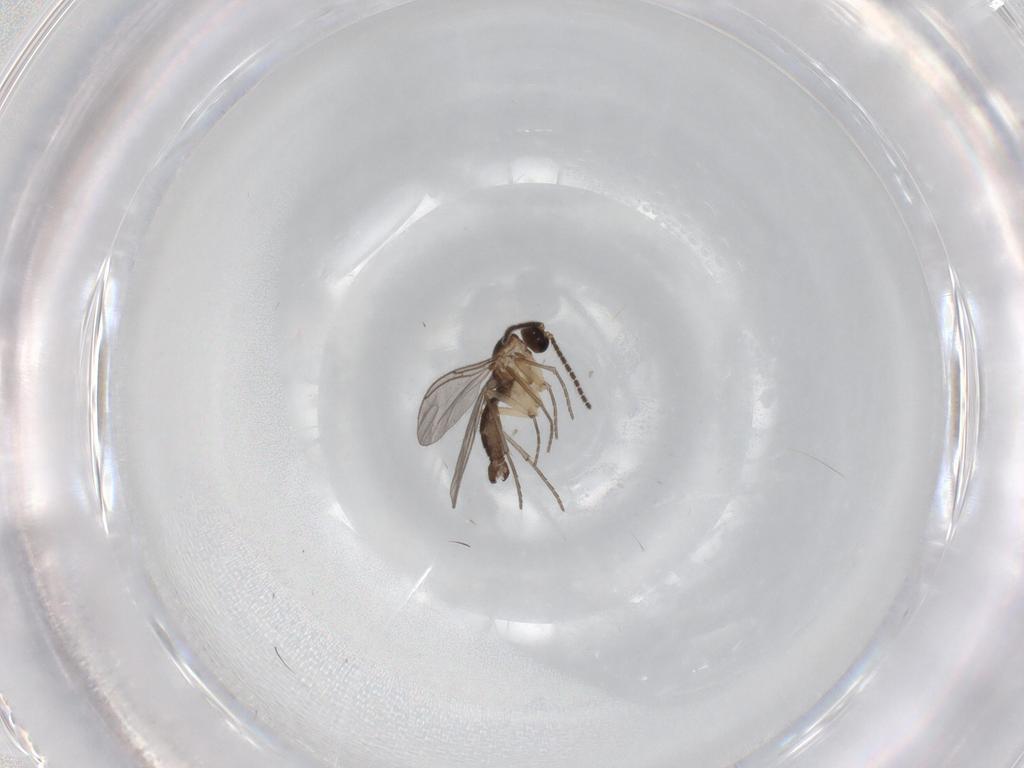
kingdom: Animalia
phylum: Arthropoda
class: Insecta
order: Diptera
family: Sciaridae
